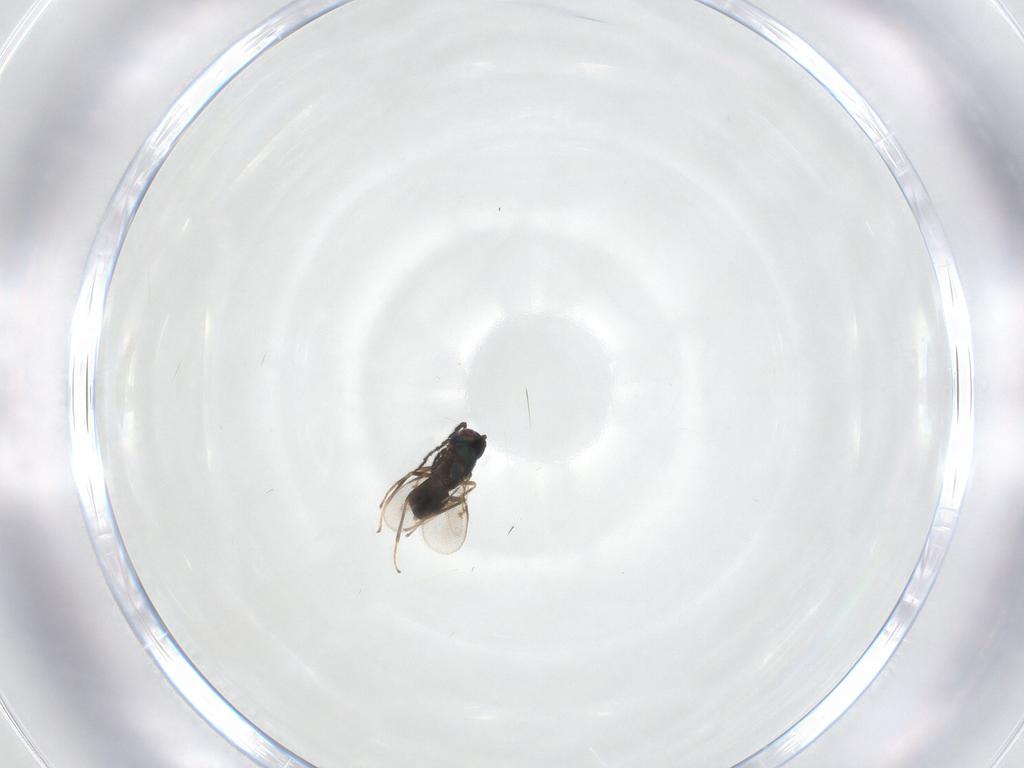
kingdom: Animalia
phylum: Arthropoda
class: Insecta
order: Hymenoptera
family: Encyrtidae
